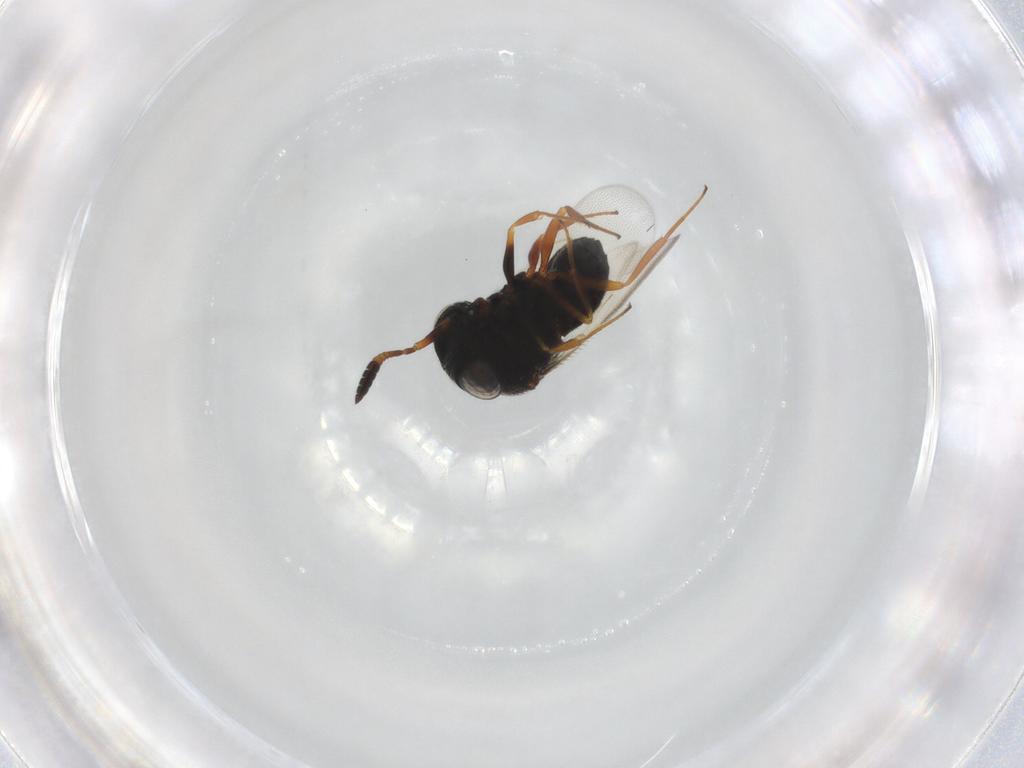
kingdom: Animalia
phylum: Arthropoda
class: Insecta
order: Hymenoptera
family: Scelionidae
